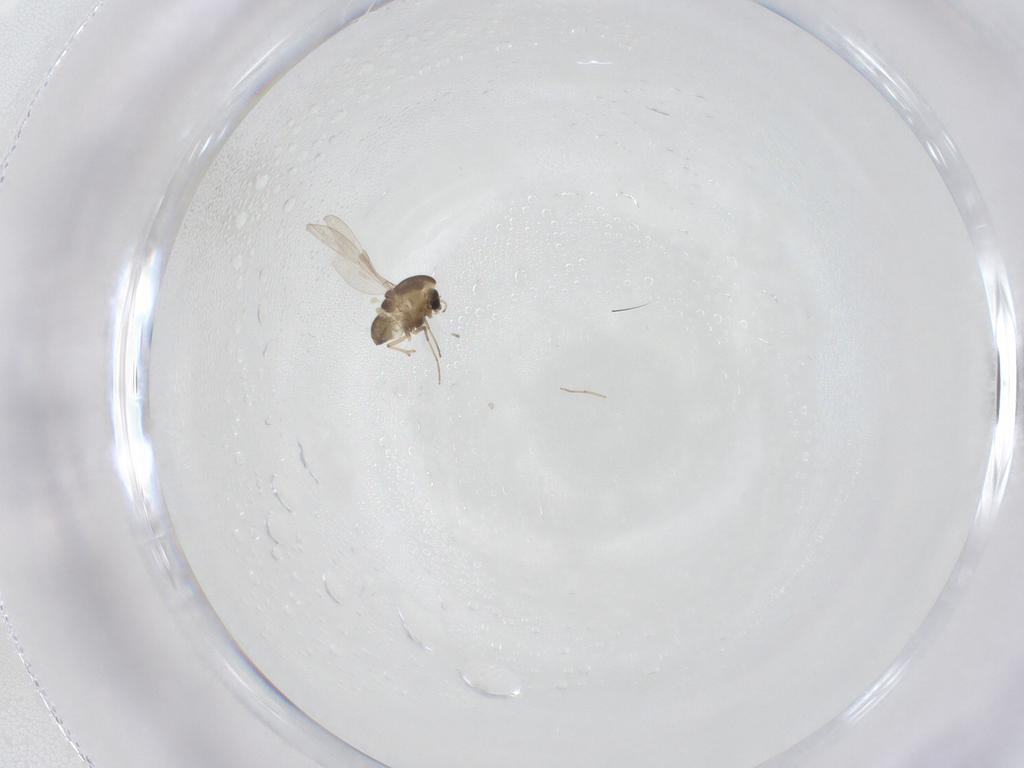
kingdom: Animalia
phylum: Arthropoda
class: Insecta
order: Diptera
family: Chironomidae
